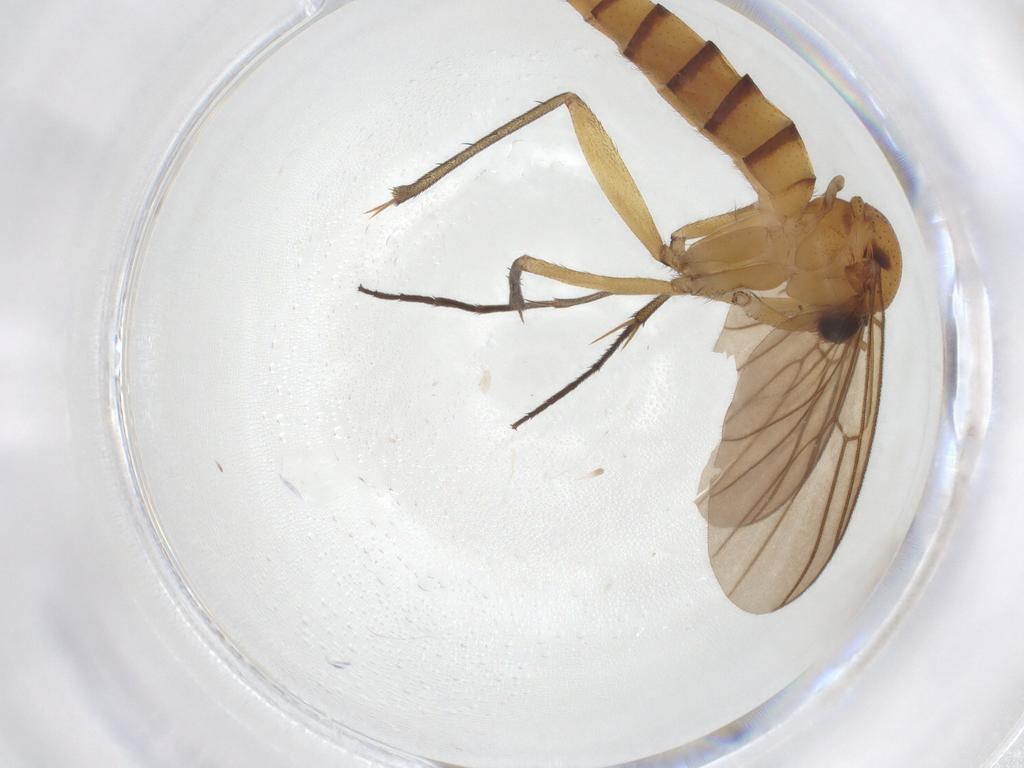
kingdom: Animalia
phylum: Arthropoda
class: Insecta
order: Diptera
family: Mycetophilidae
